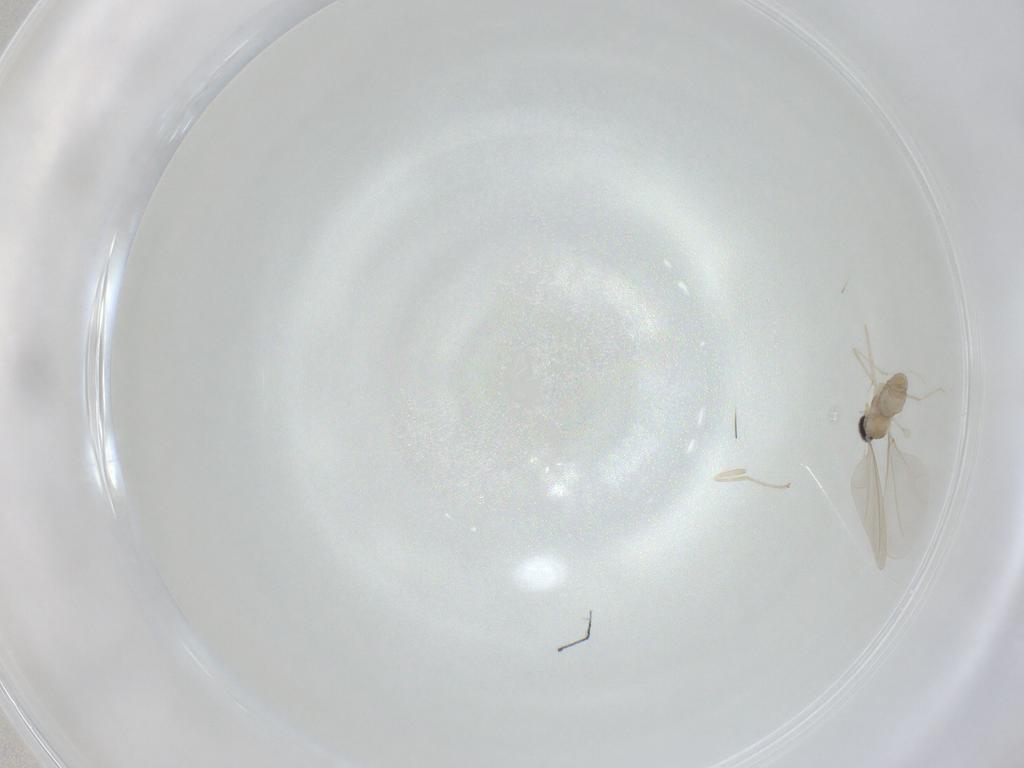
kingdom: Animalia
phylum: Arthropoda
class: Insecta
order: Diptera
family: Cecidomyiidae
